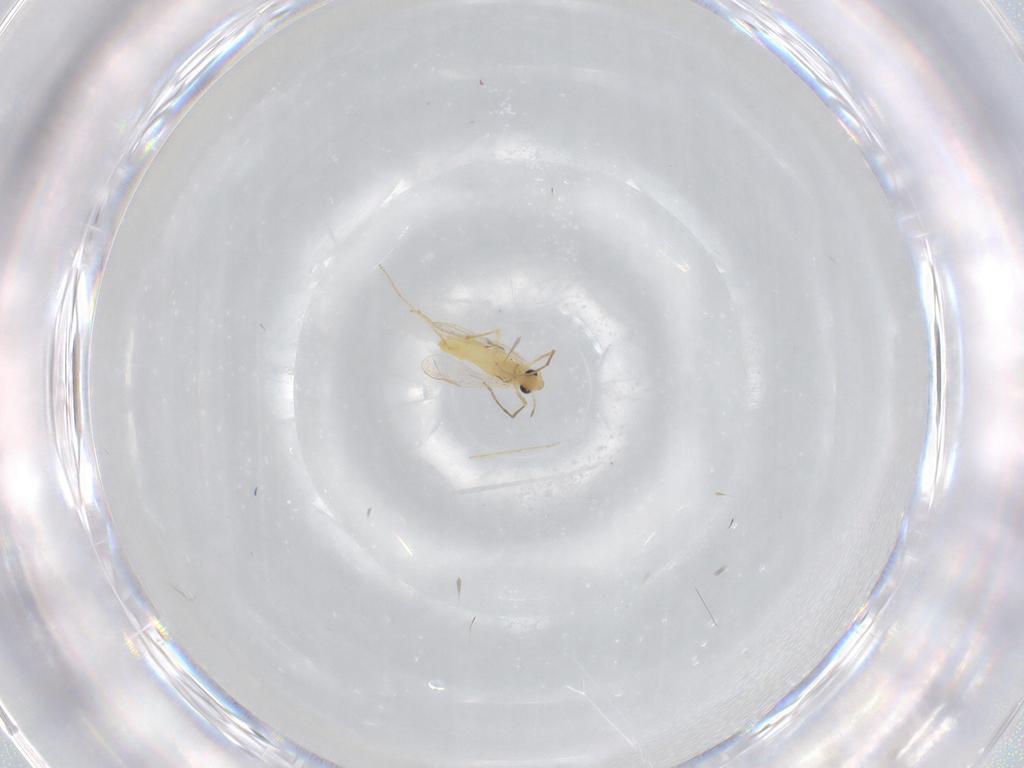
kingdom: Animalia
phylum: Arthropoda
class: Insecta
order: Diptera
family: Chironomidae
